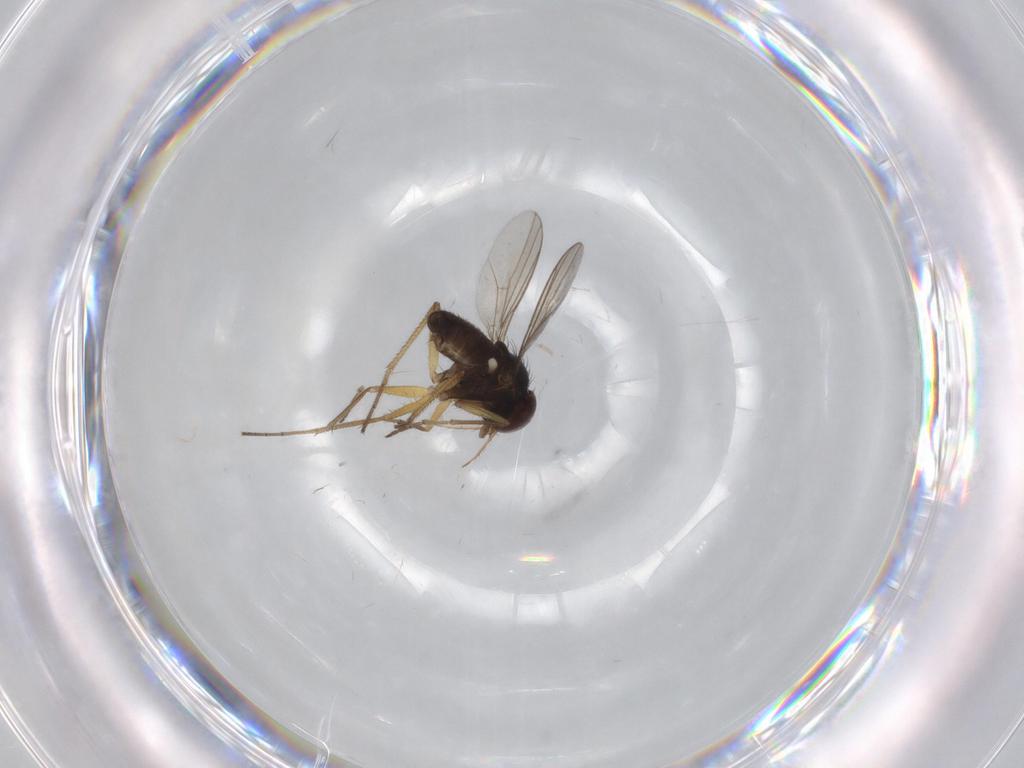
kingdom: Animalia
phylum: Arthropoda
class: Insecta
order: Diptera
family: Dolichopodidae
